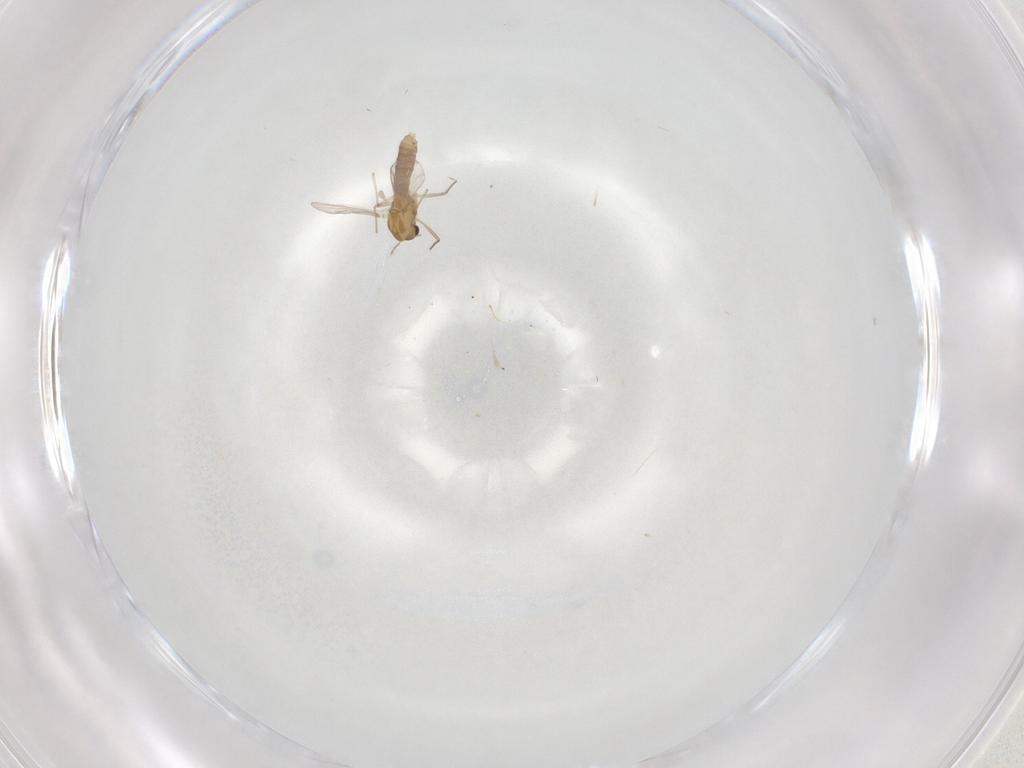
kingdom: Animalia
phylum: Arthropoda
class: Insecta
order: Diptera
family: Chironomidae
